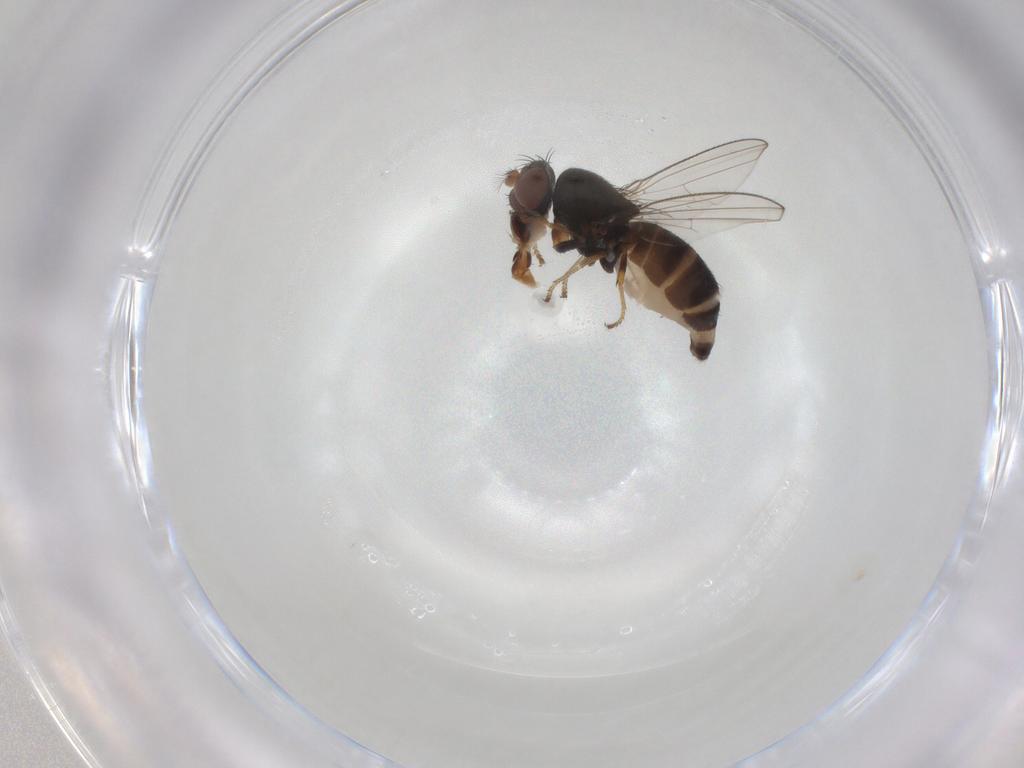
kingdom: Animalia
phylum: Arthropoda
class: Insecta
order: Diptera
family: Ephydridae
